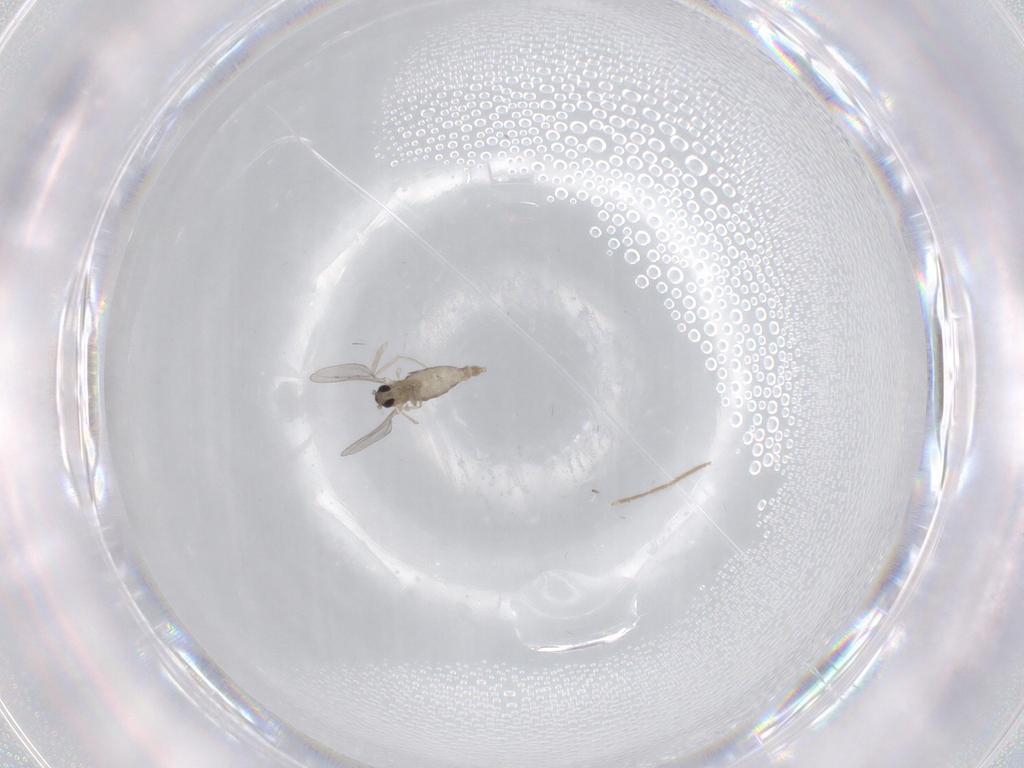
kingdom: Animalia
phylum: Arthropoda
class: Insecta
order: Diptera
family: Cecidomyiidae
